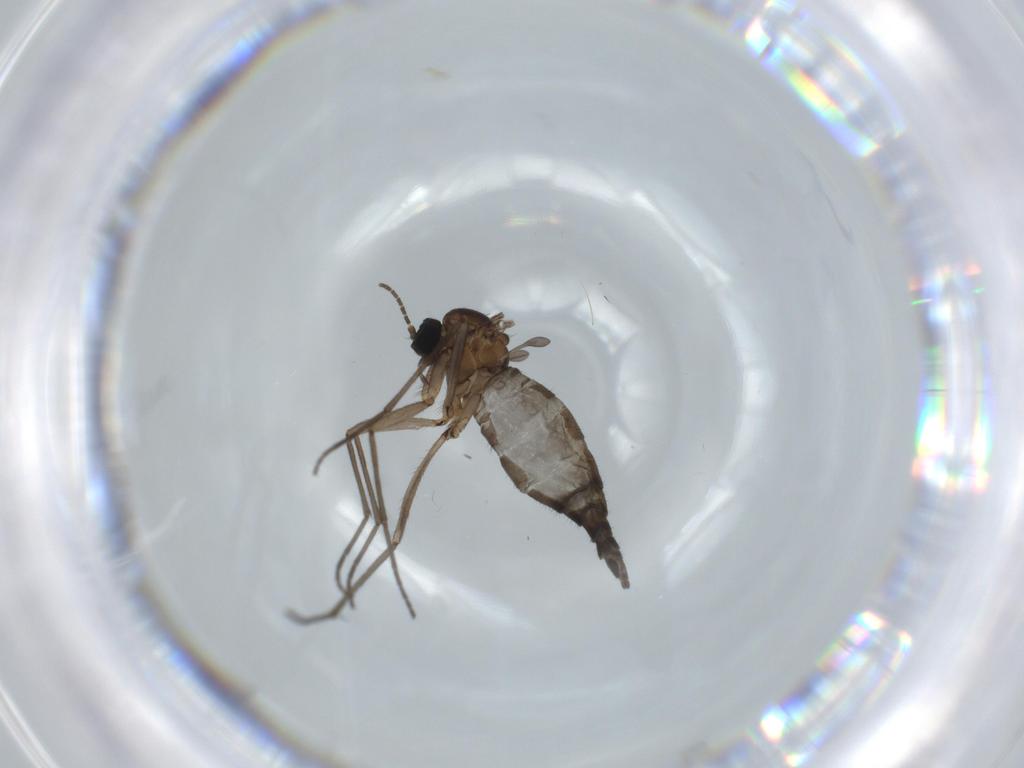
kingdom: Animalia
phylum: Arthropoda
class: Insecta
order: Diptera
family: Sciaridae
